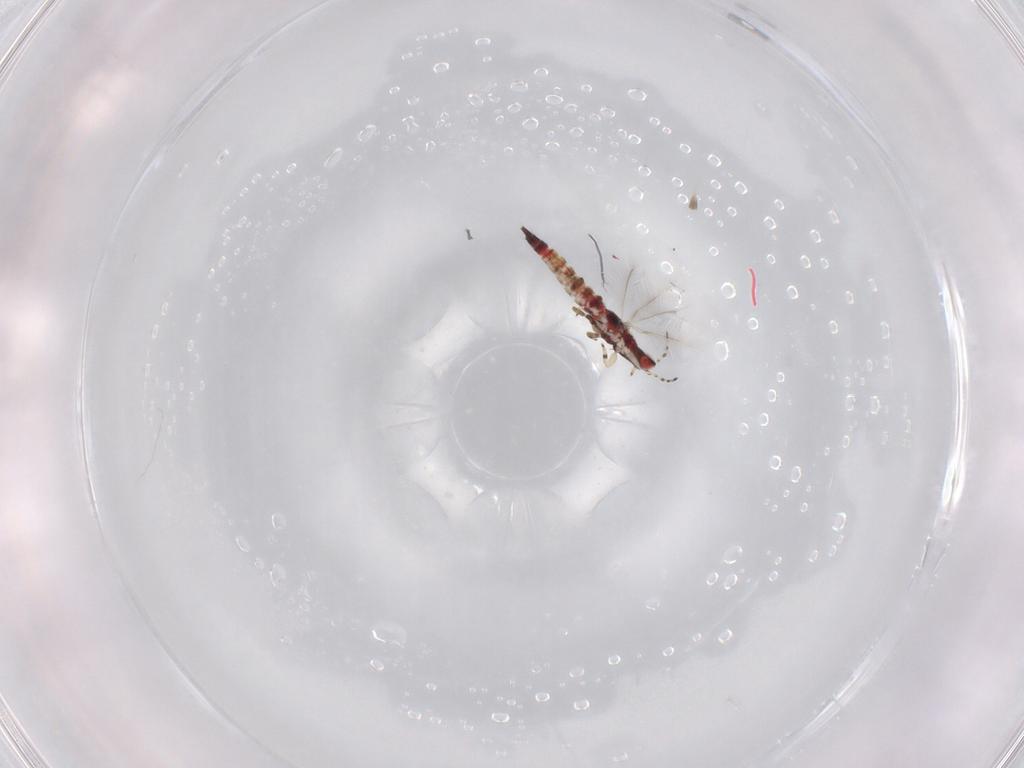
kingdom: Animalia
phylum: Arthropoda
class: Insecta
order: Thysanoptera
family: Phlaeothripidae
